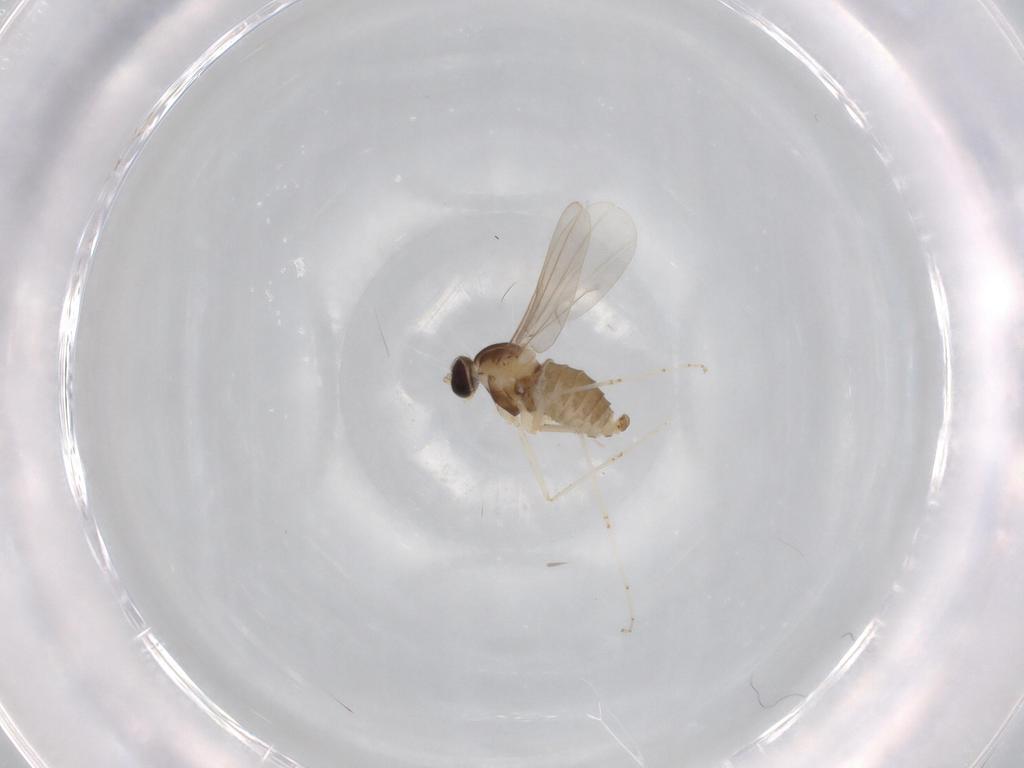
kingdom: Animalia
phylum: Arthropoda
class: Insecta
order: Diptera
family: Cecidomyiidae
